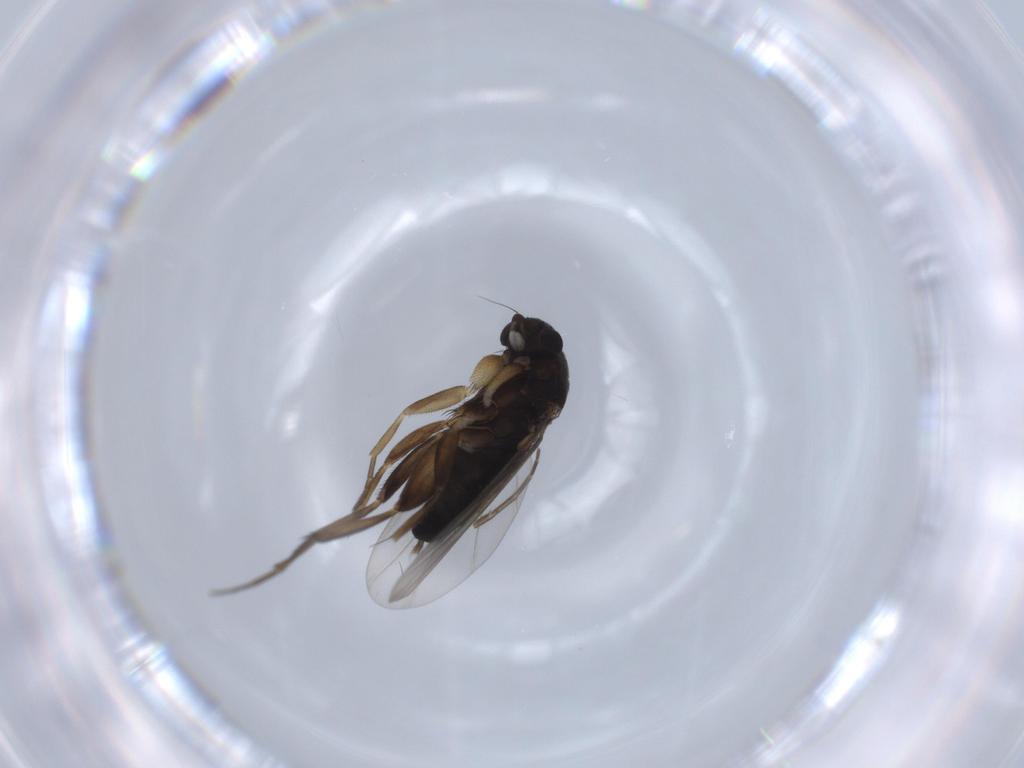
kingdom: Animalia
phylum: Arthropoda
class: Insecta
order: Diptera
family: Phoridae
